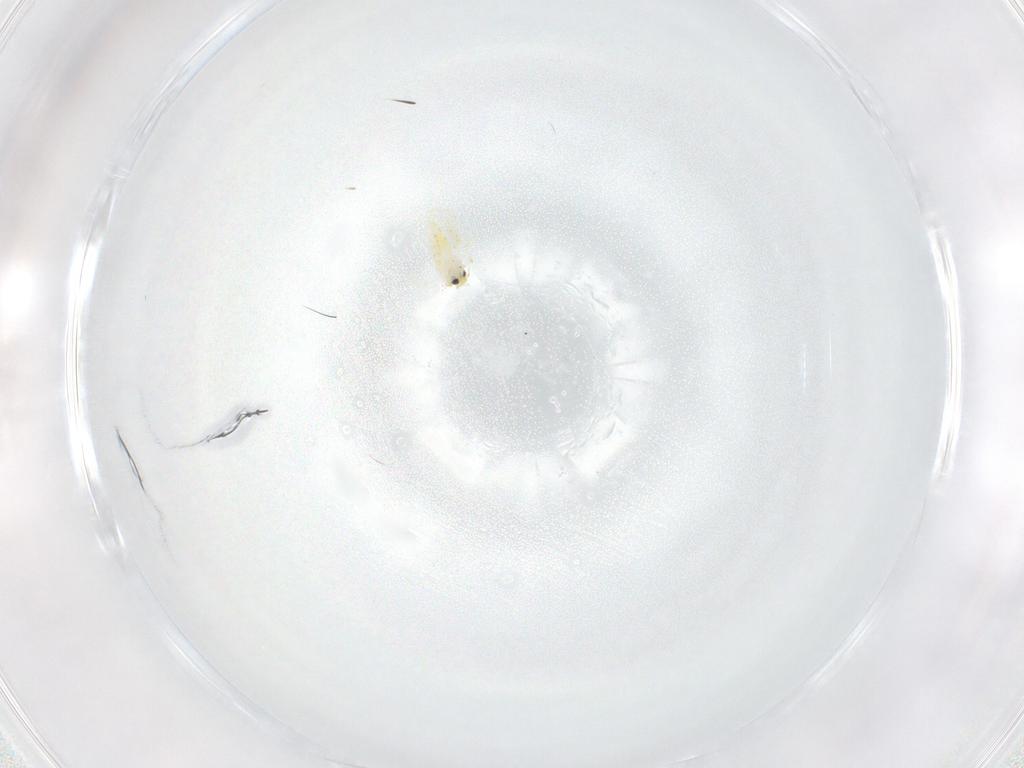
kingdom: Animalia
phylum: Arthropoda
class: Insecta
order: Hemiptera
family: Aleyrodidae
